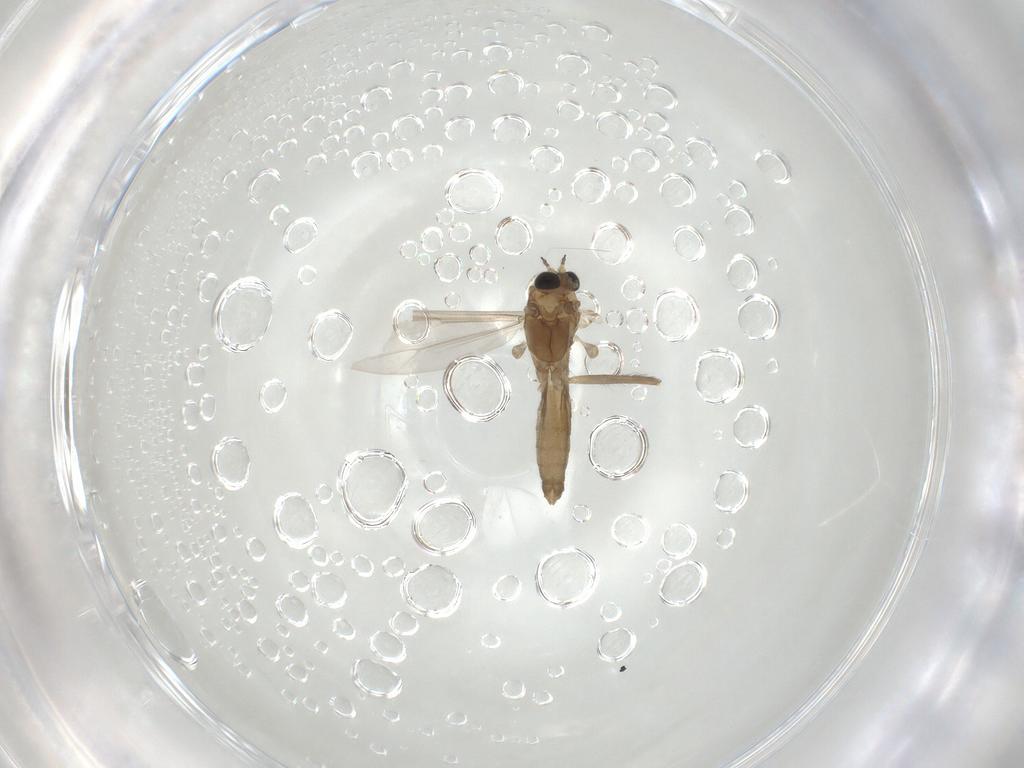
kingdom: Animalia
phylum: Arthropoda
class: Insecta
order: Diptera
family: Chironomidae
